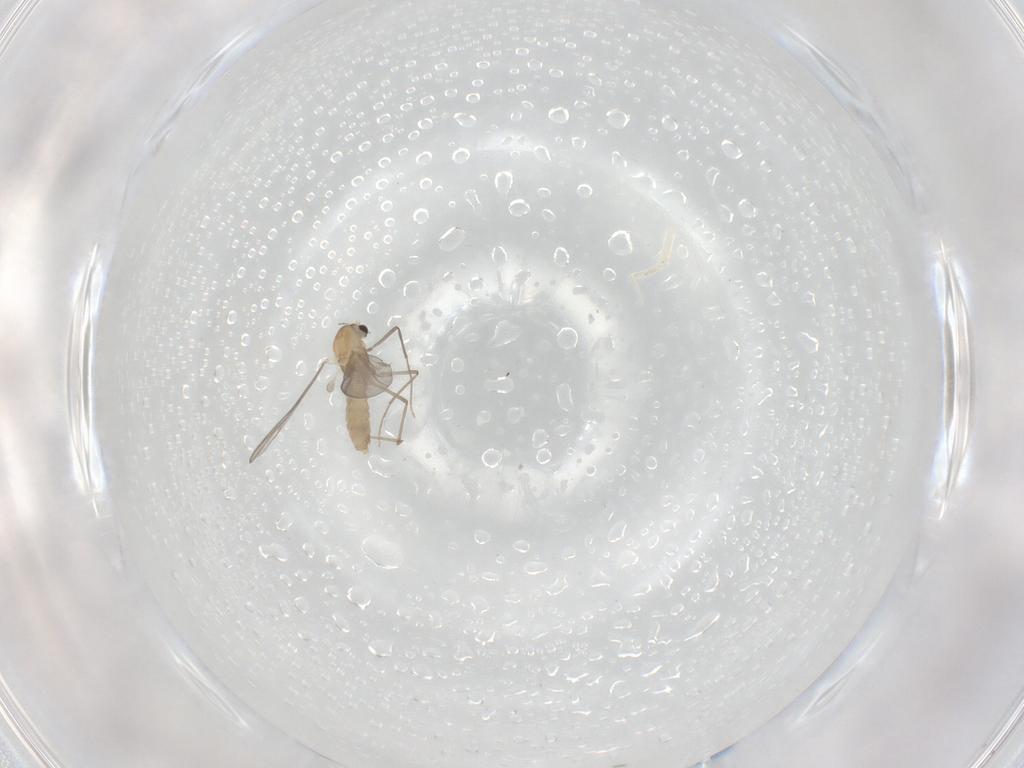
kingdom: Animalia
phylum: Arthropoda
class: Insecta
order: Diptera
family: Chironomidae
